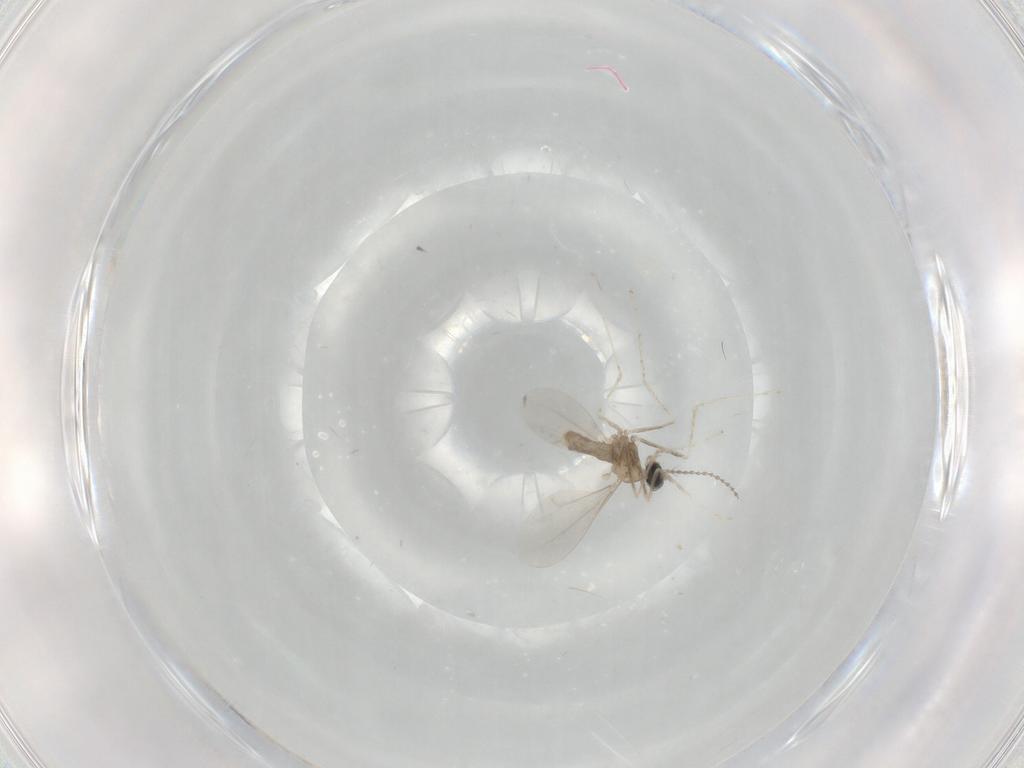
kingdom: Animalia
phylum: Arthropoda
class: Insecta
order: Diptera
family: Cecidomyiidae
